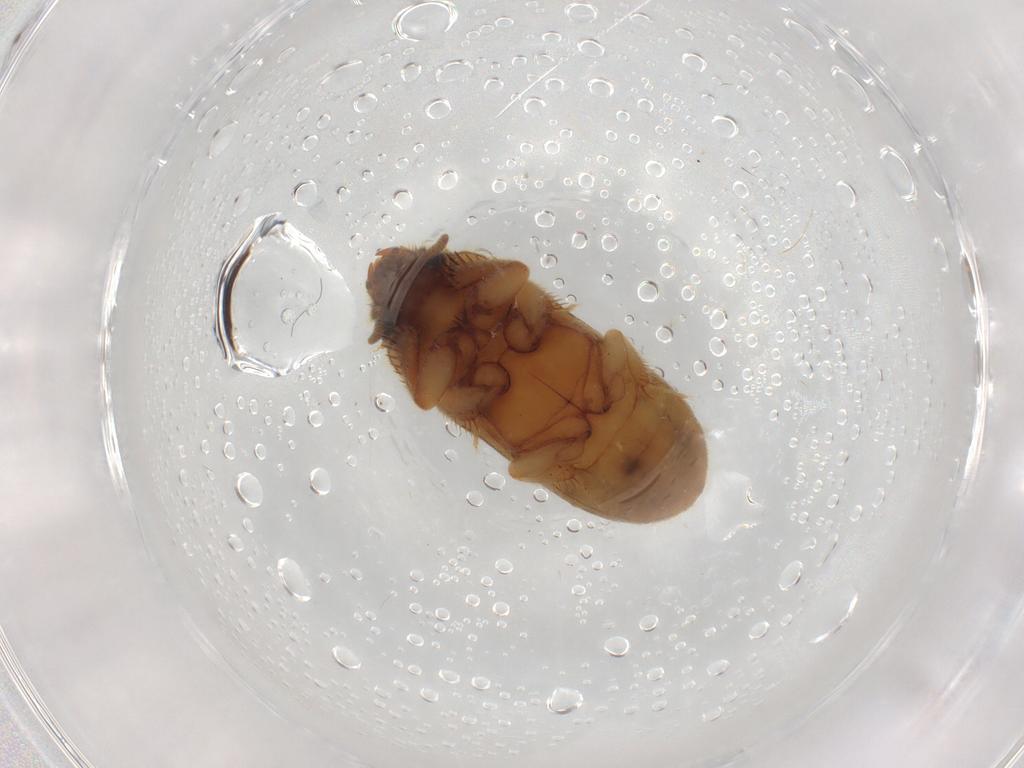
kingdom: Animalia
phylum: Arthropoda
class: Insecta
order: Coleoptera
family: Heteroceridae
